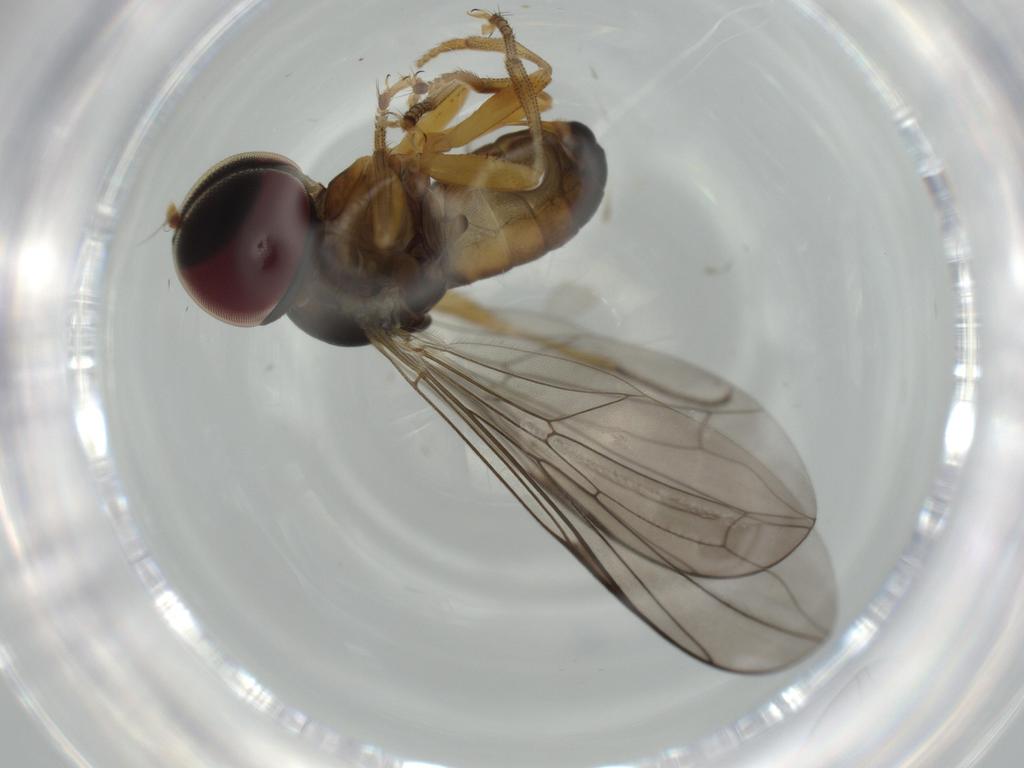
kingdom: Animalia
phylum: Arthropoda
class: Insecta
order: Diptera
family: Pipunculidae
